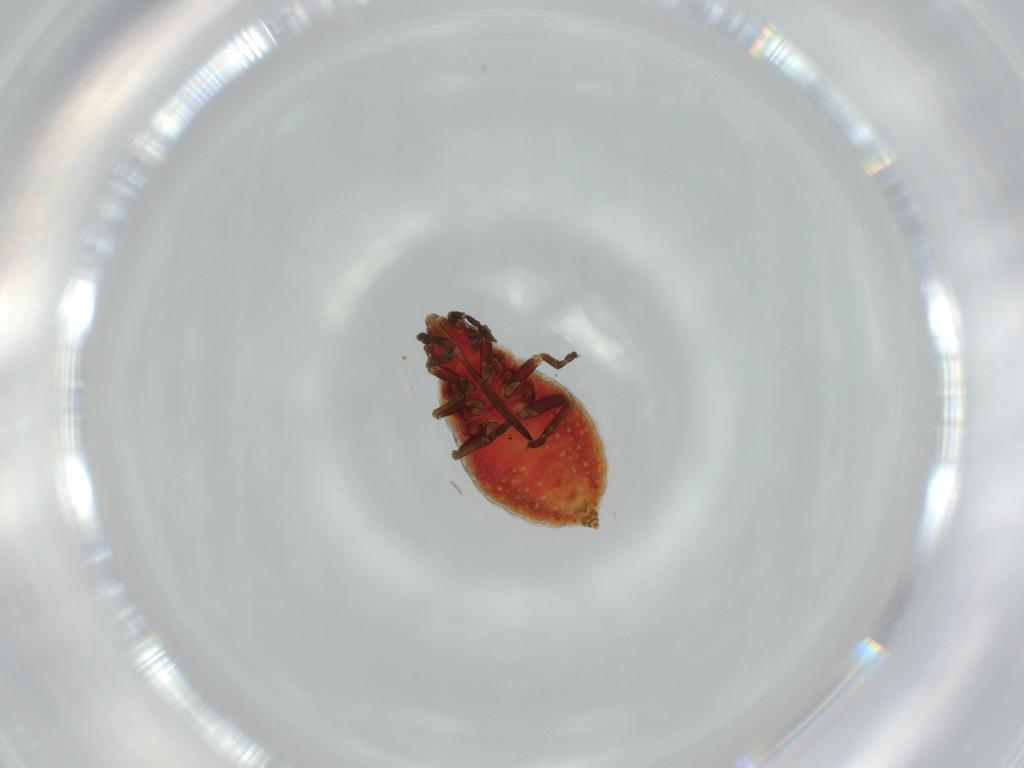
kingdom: Animalia
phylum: Arthropoda
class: Insecta
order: Hemiptera
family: Cymidae
